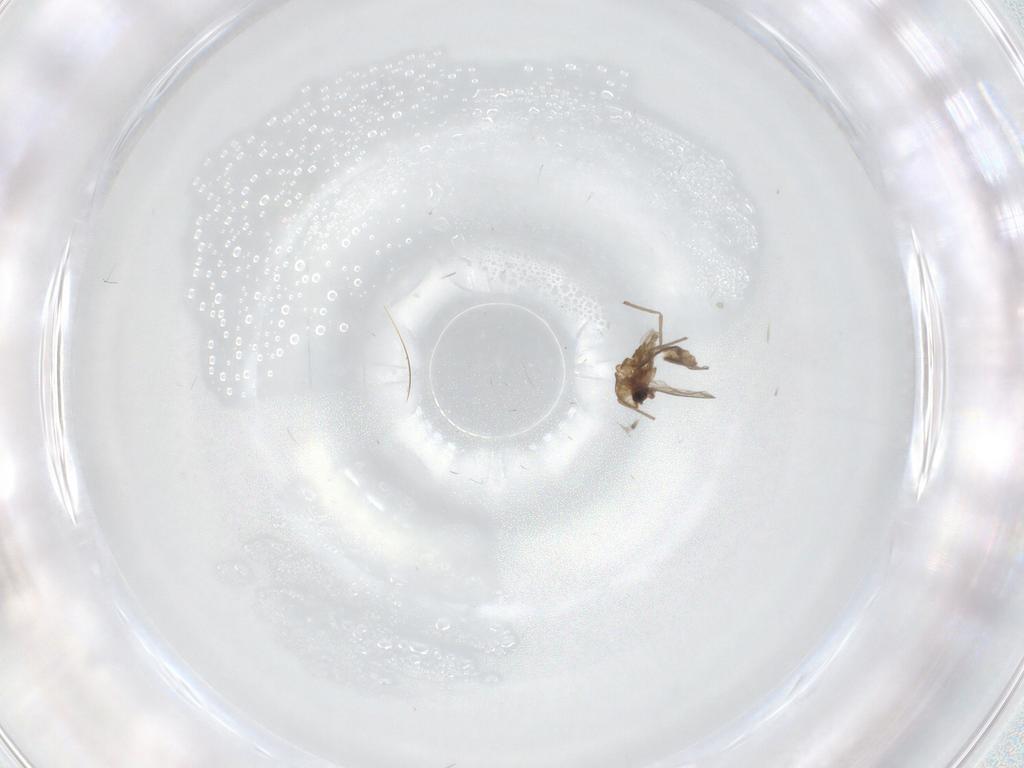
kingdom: Animalia
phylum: Arthropoda
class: Insecta
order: Diptera
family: Chironomidae
